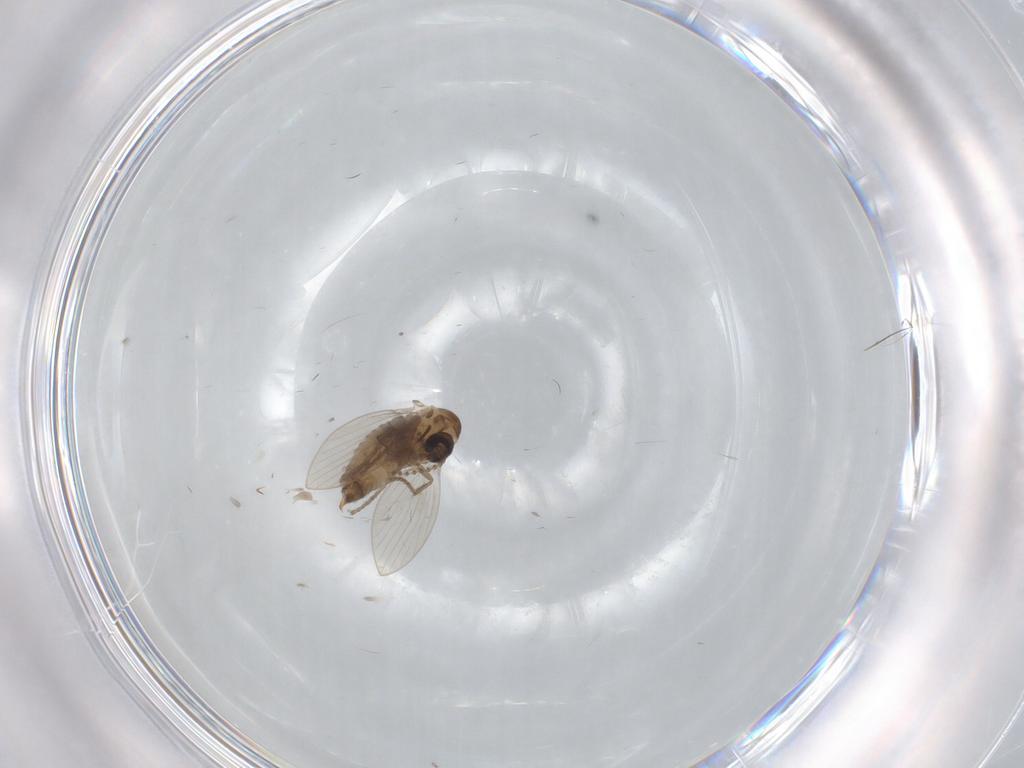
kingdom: Animalia
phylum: Arthropoda
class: Insecta
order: Diptera
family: Psychodidae
